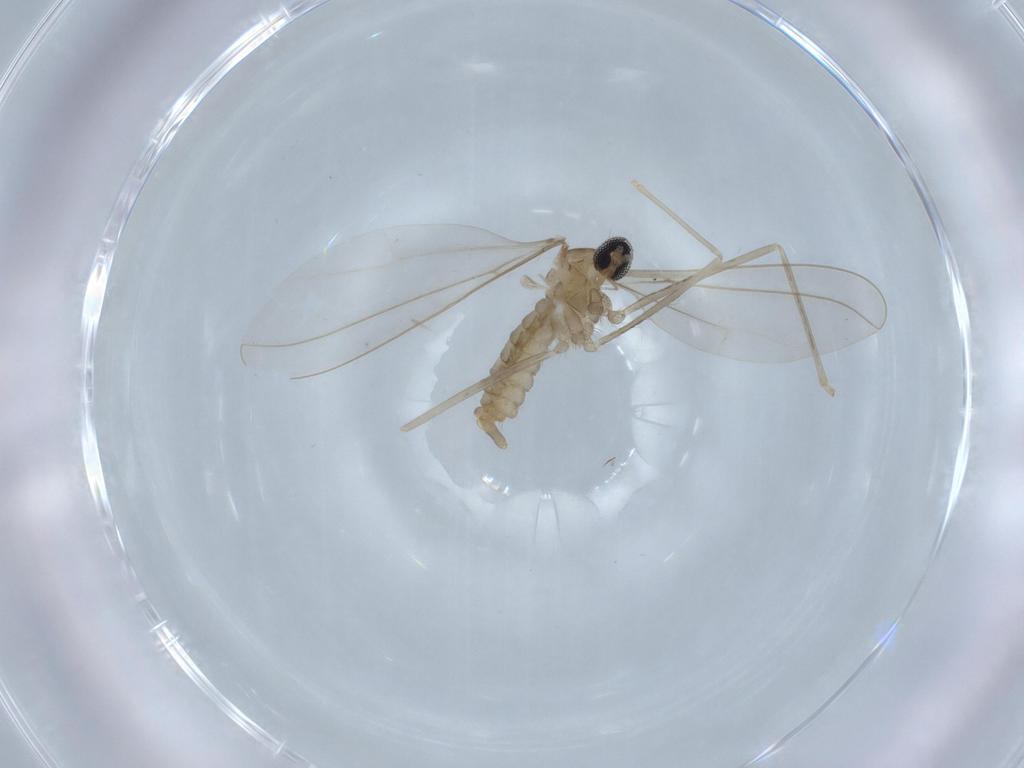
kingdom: Animalia
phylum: Arthropoda
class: Insecta
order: Diptera
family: Cecidomyiidae
